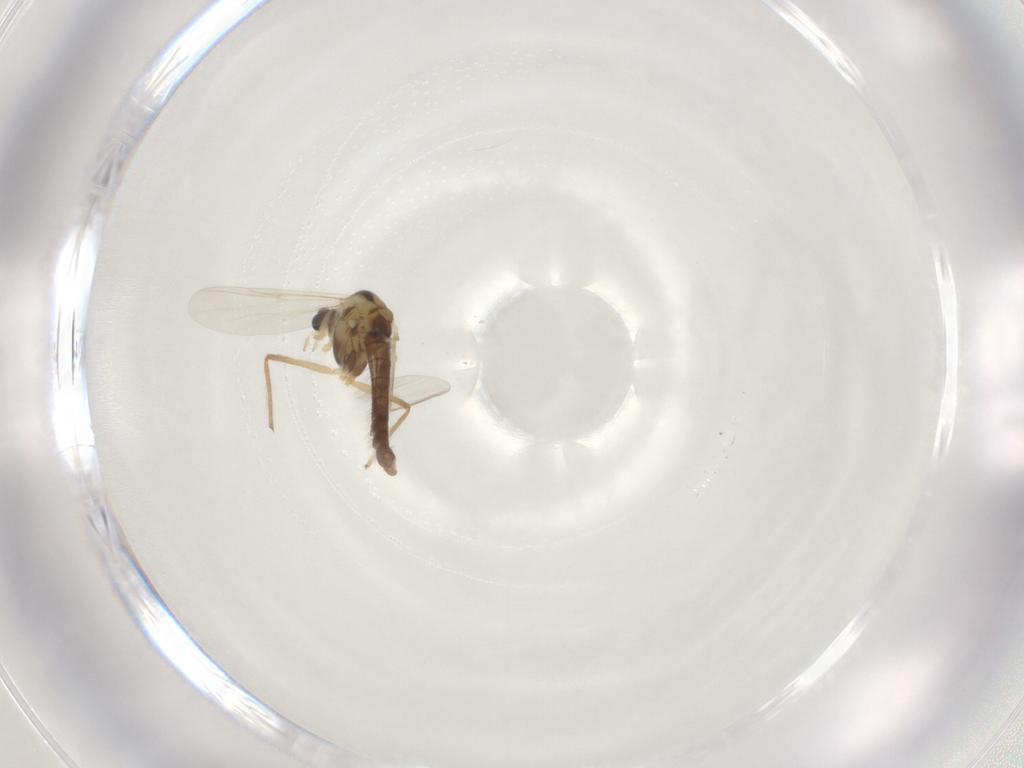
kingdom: Animalia
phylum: Arthropoda
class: Insecta
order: Diptera
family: Chironomidae
